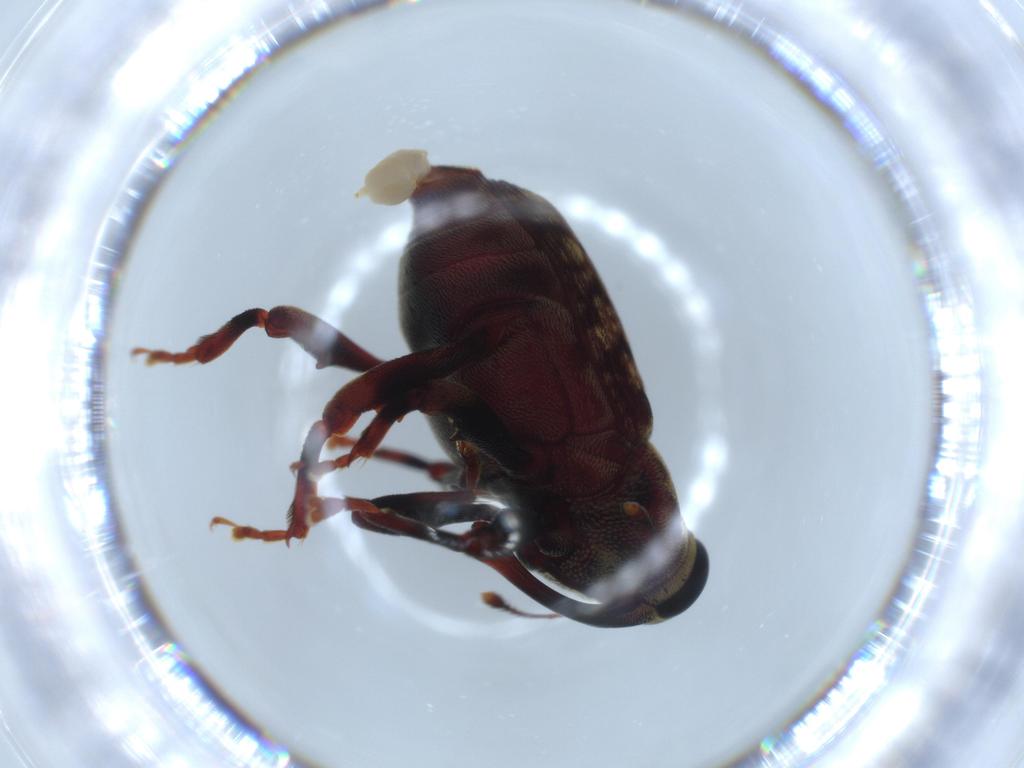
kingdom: Animalia
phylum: Arthropoda
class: Insecta
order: Coleoptera
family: Curculionidae
